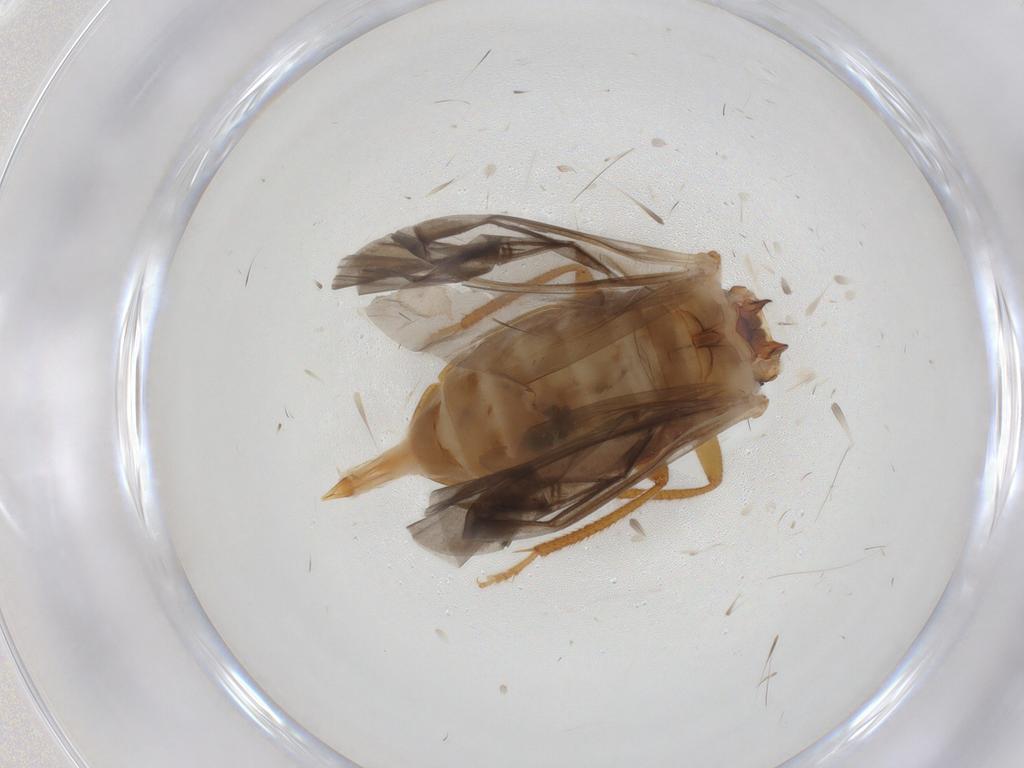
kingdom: Animalia
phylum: Arthropoda
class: Insecta
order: Coleoptera
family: Ptilodactylidae
